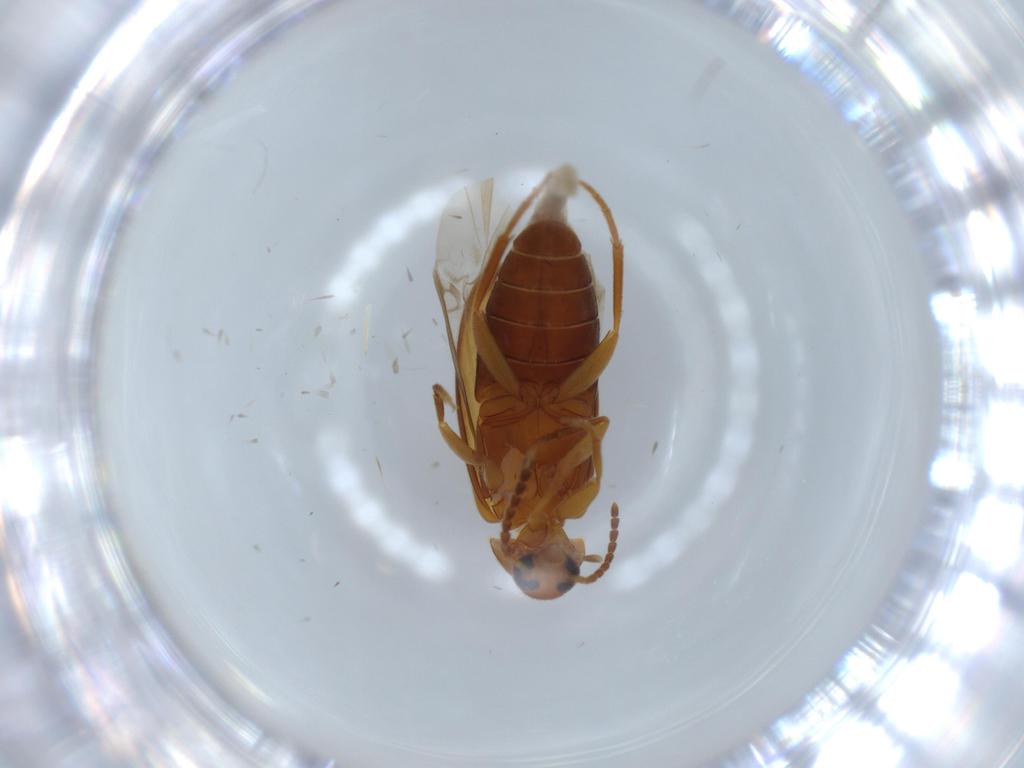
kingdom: Animalia
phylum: Arthropoda
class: Insecta
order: Coleoptera
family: Scraptiidae
